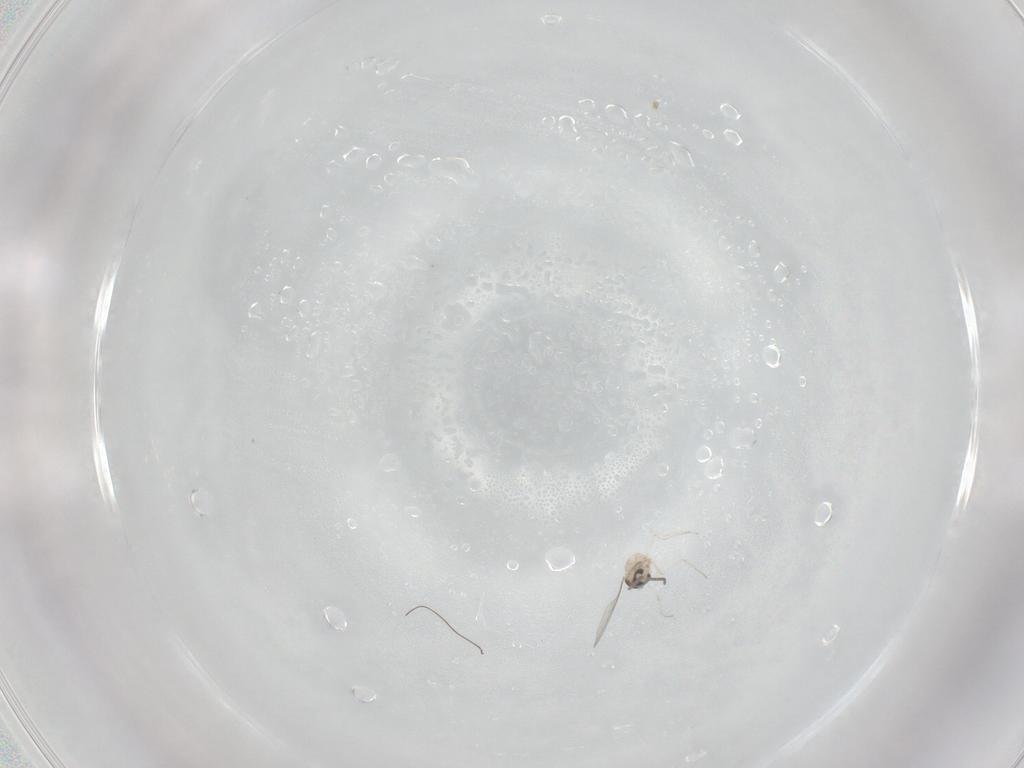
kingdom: Animalia
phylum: Arthropoda
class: Insecta
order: Diptera
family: Cecidomyiidae
